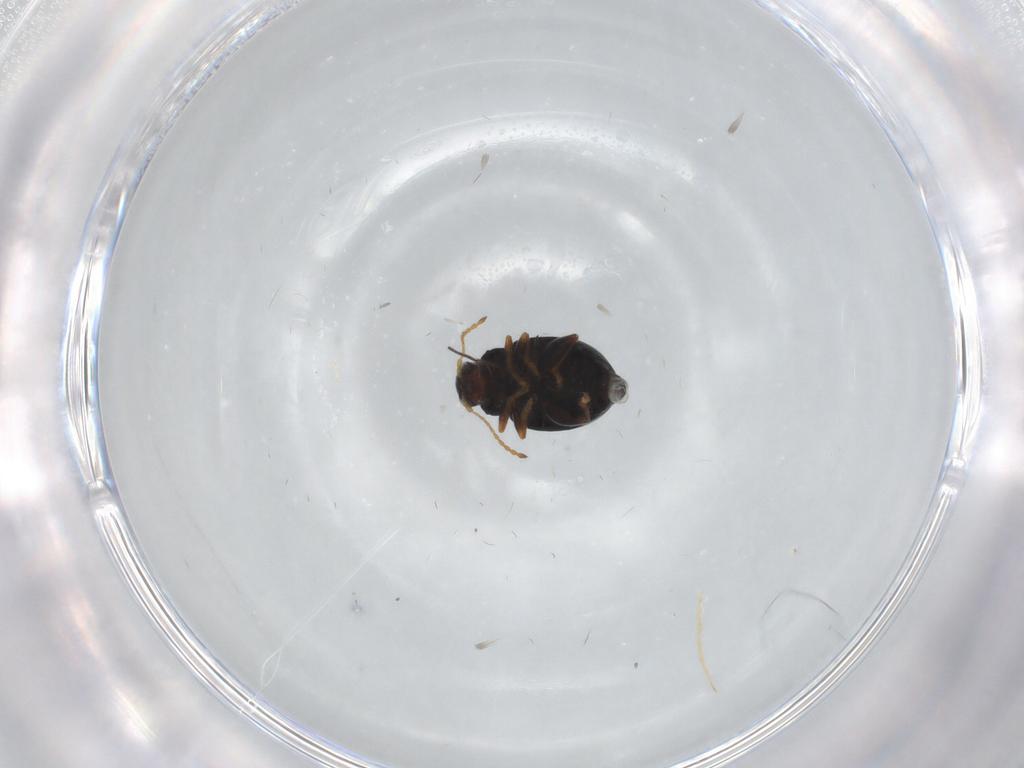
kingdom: Animalia
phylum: Arthropoda
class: Insecta
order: Coleoptera
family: Chrysomelidae
